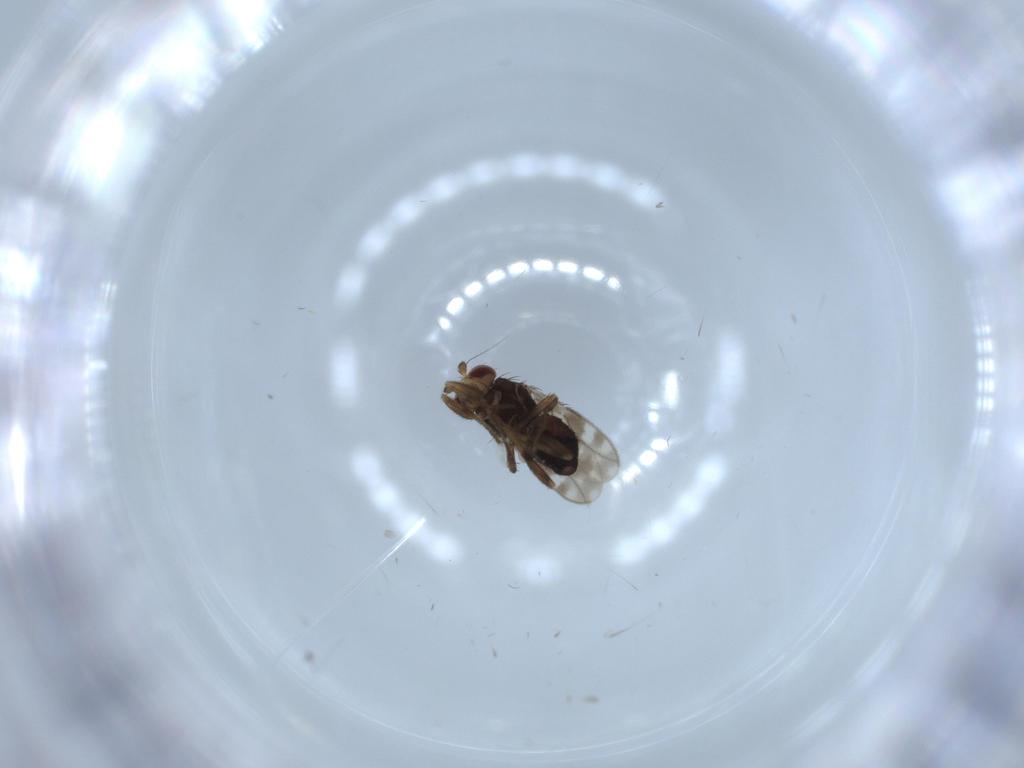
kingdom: Animalia
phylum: Arthropoda
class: Insecta
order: Diptera
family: Sphaeroceridae
